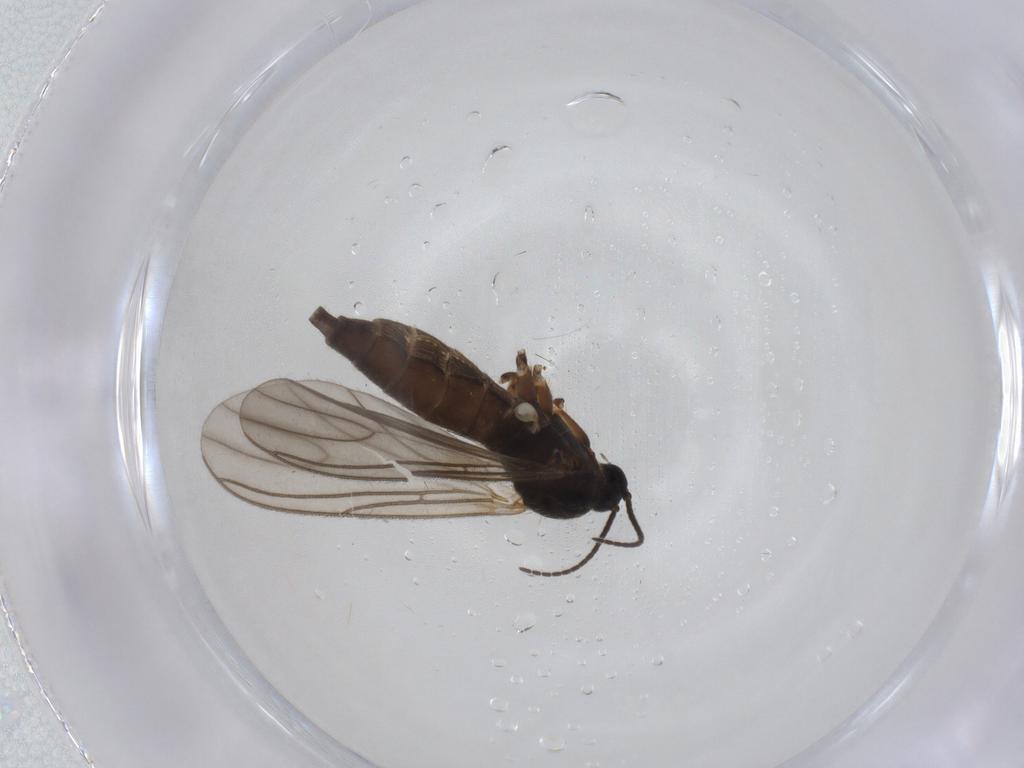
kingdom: Animalia
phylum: Arthropoda
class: Insecta
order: Diptera
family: Sciaridae
